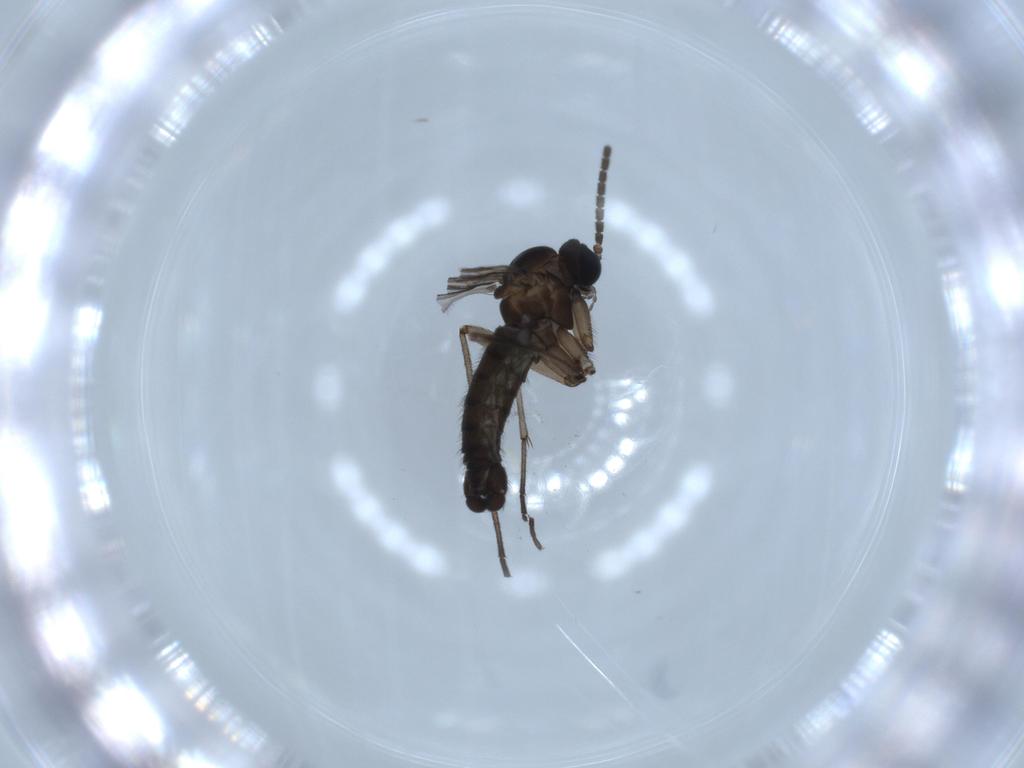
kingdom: Animalia
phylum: Arthropoda
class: Insecta
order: Diptera
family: Sciaridae
